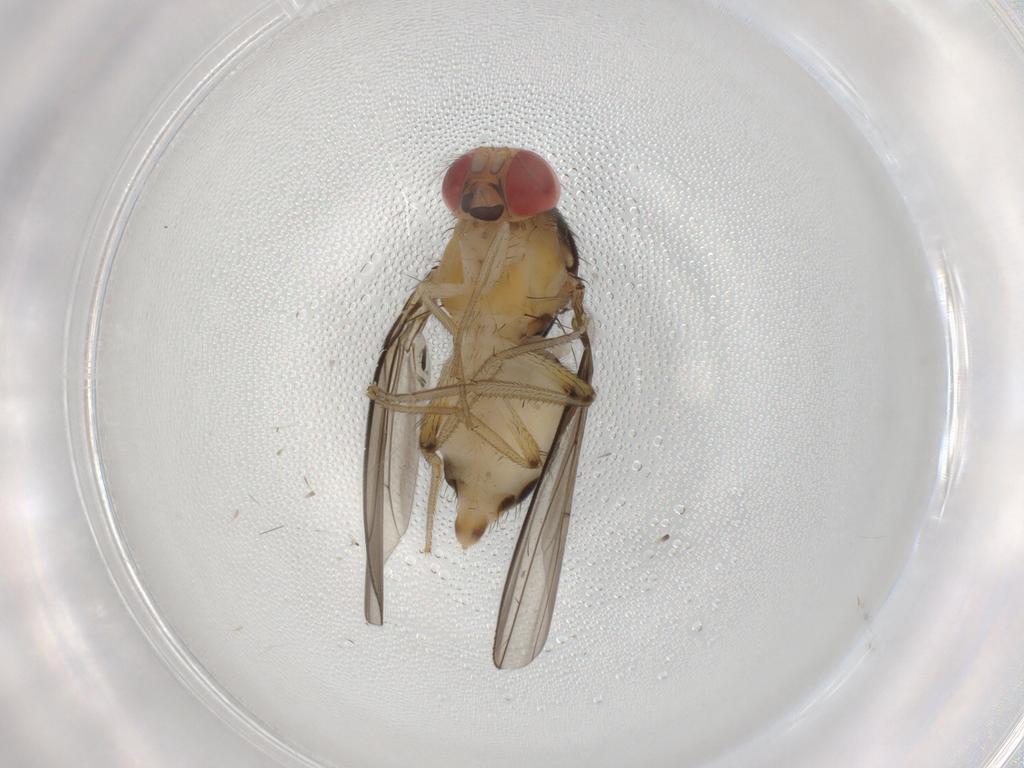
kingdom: Animalia
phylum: Arthropoda
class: Insecta
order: Diptera
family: Drosophilidae
